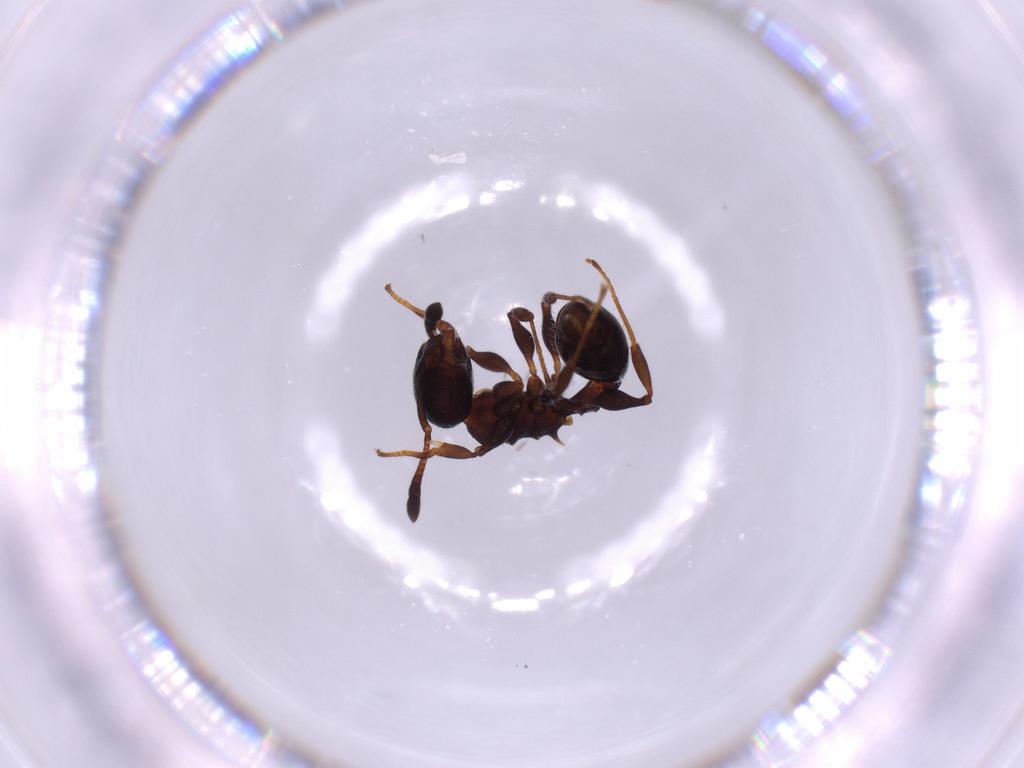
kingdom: Animalia
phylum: Arthropoda
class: Insecta
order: Hymenoptera
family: Formicidae
